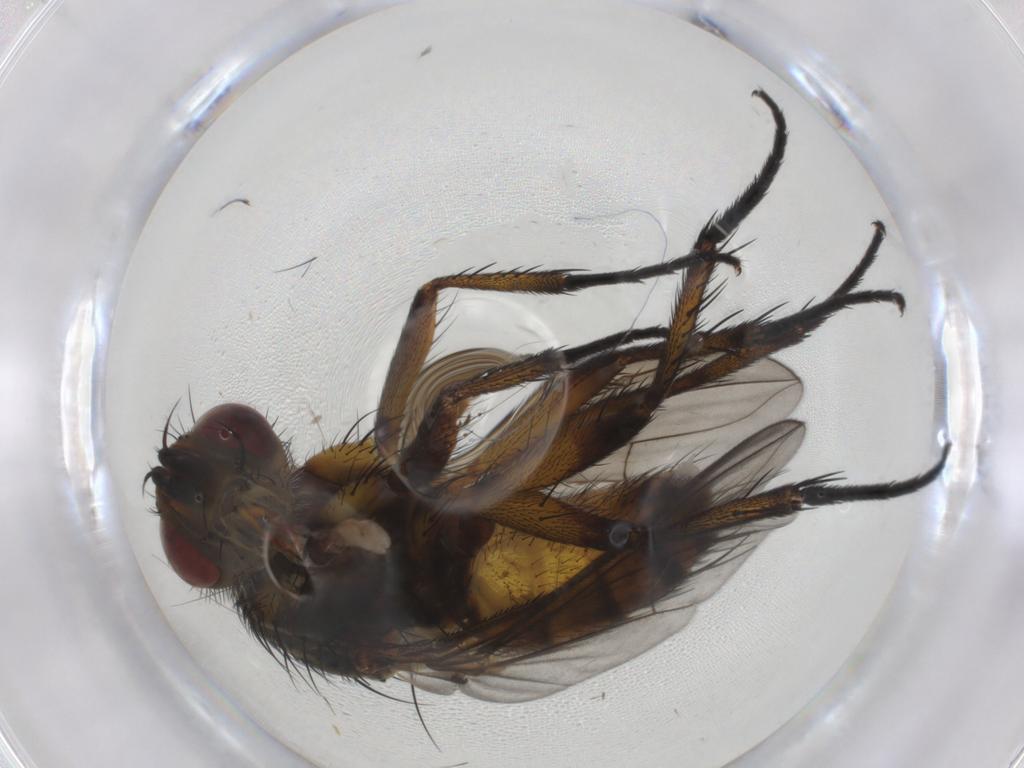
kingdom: Animalia
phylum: Arthropoda
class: Insecta
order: Diptera
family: Tachinidae
